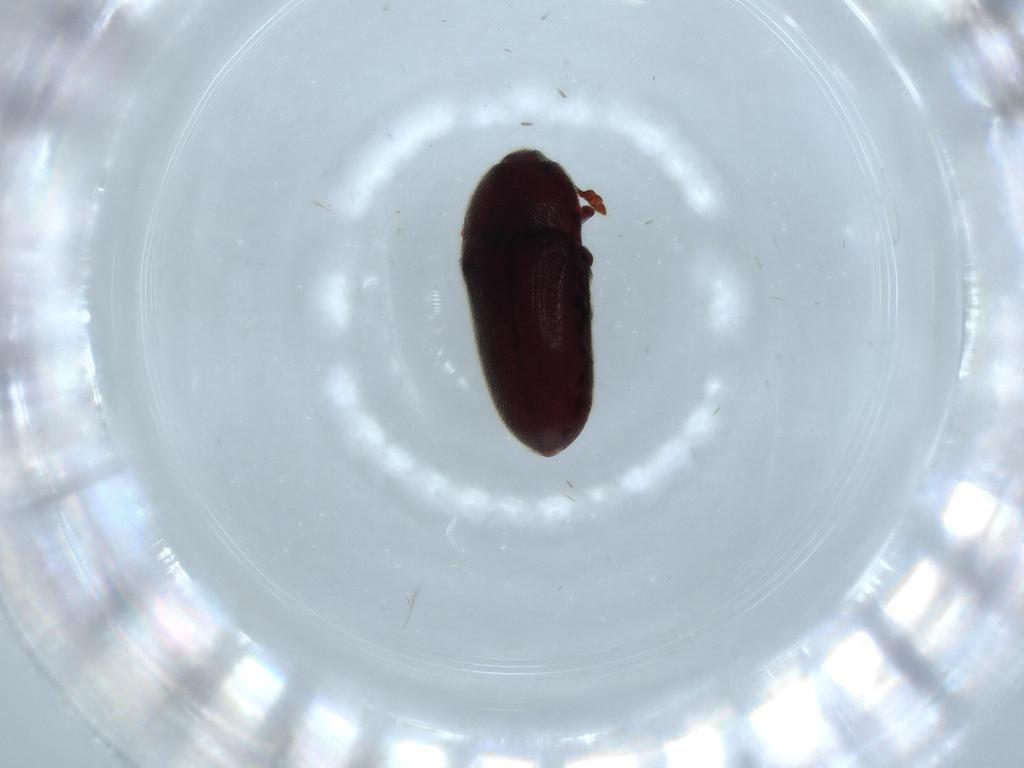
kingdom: Animalia
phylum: Arthropoda
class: Insecta
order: Coleoptera
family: Throscidae
